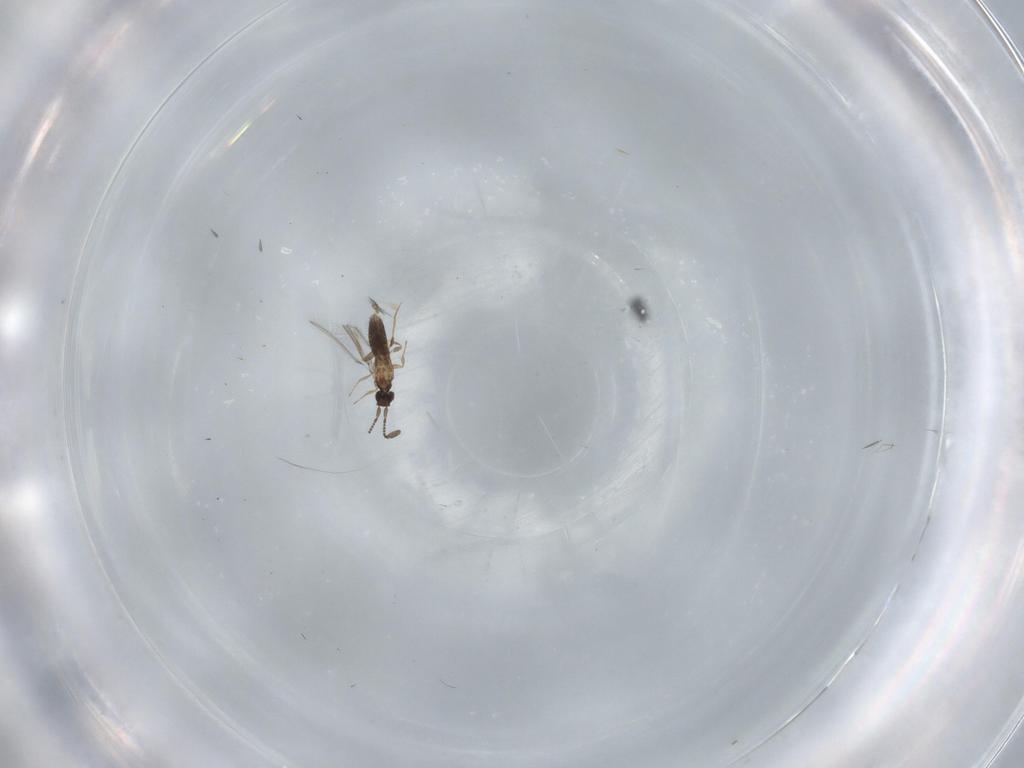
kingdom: Animalia
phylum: Arthropoda
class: Insecta
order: Hymenoptera
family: Mymaridae
